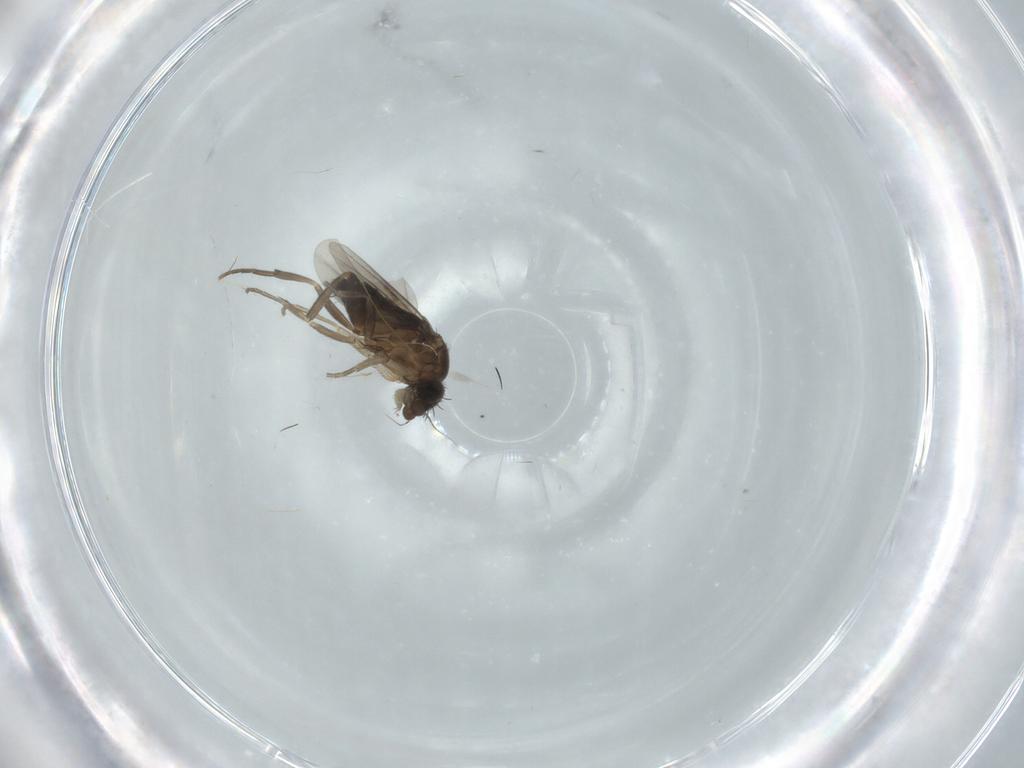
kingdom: Animalia
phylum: Arthropoda
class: Insecta
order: Diptera
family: Phoridae
